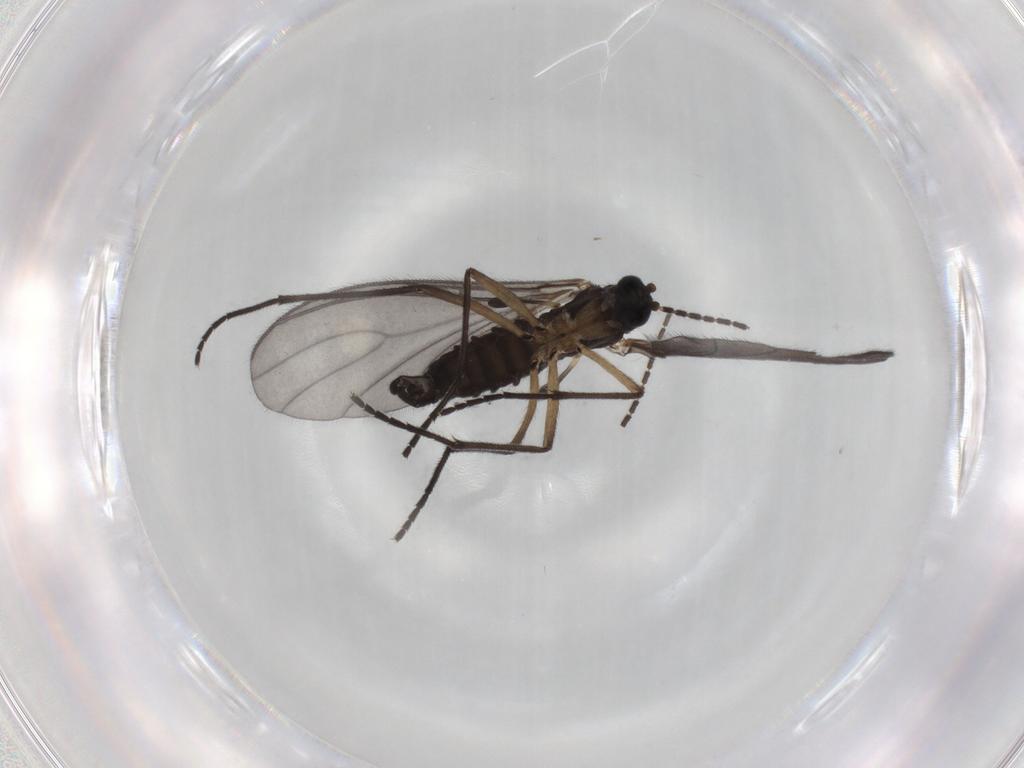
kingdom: Animalia
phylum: Arthropoda
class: Insecta
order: Diptera
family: Sciaridae
